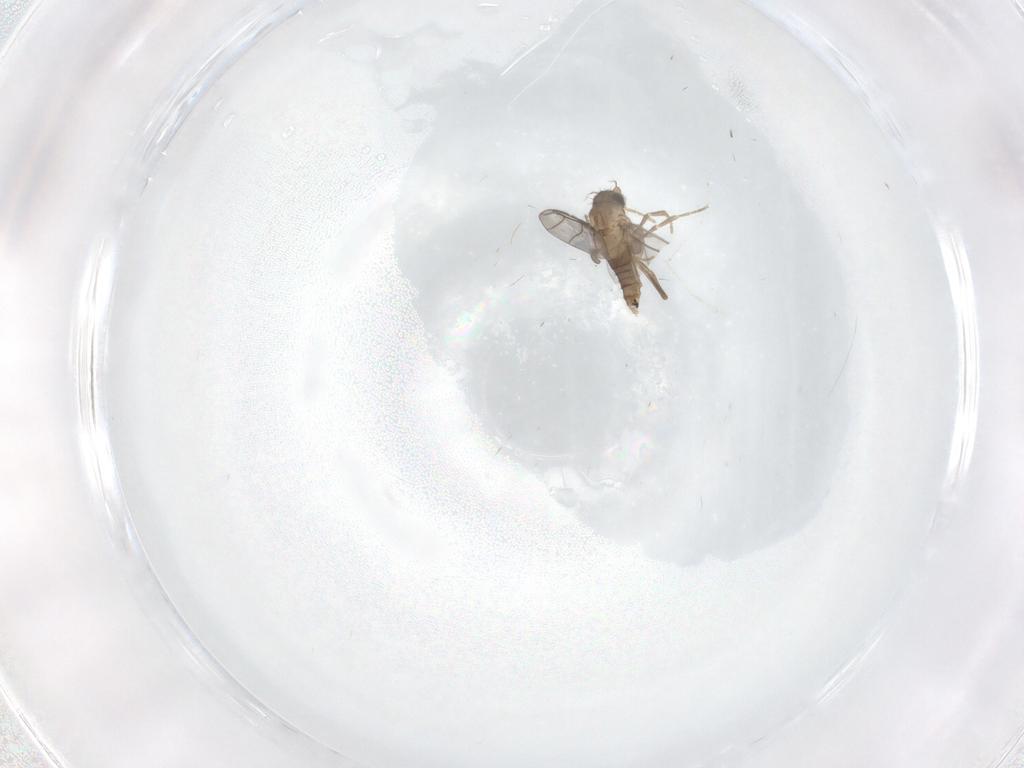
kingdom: Animalia
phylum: Arthropoda
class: Insecta
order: Diptera
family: Cecidomyiidae
